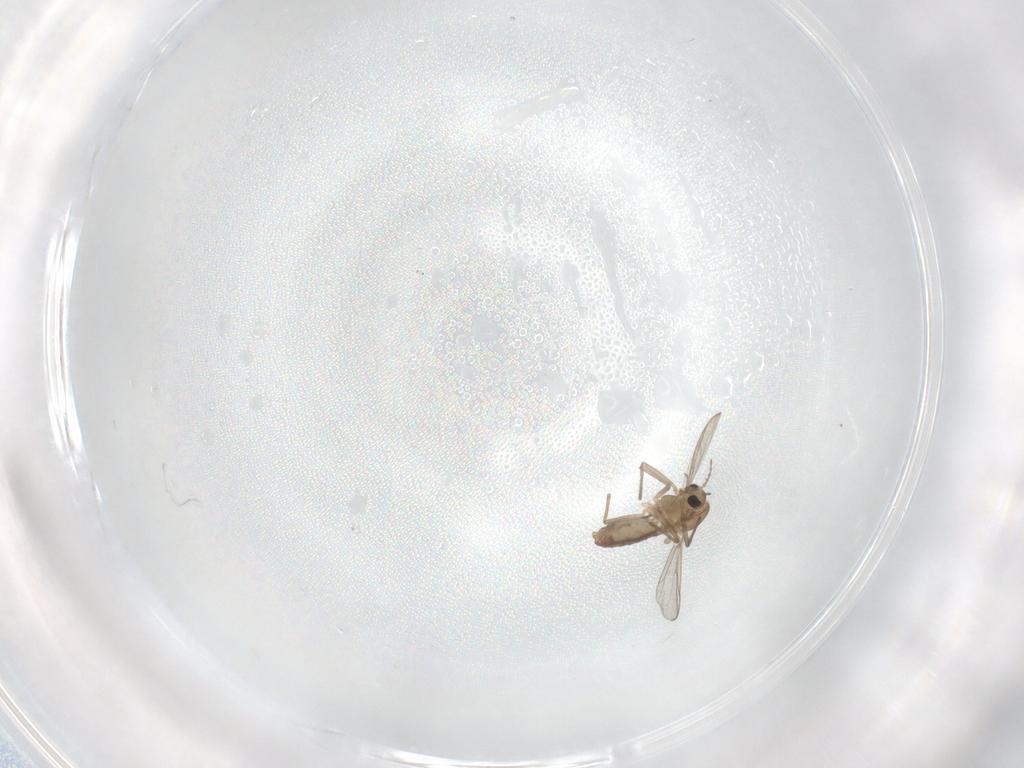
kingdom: Animalia
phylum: Arthropoda
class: Insecta
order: Diptera
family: Chironomidae
